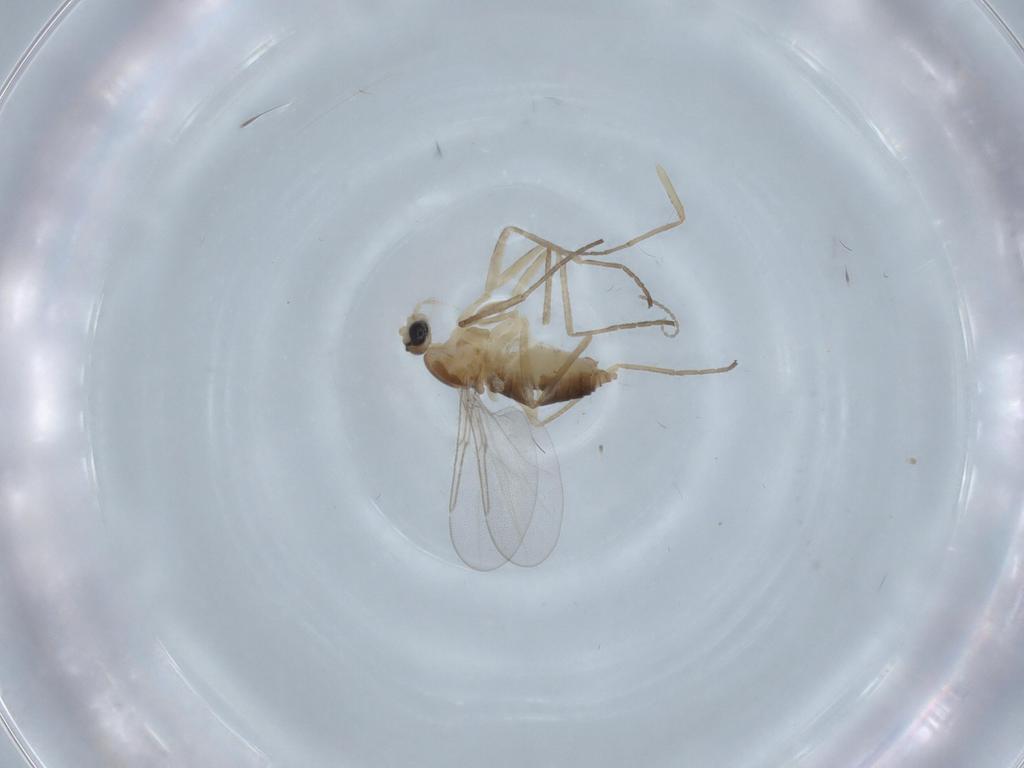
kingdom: Animalia
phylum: Arthropoda
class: Insecta
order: Diptera
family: Cecidomyiidae
